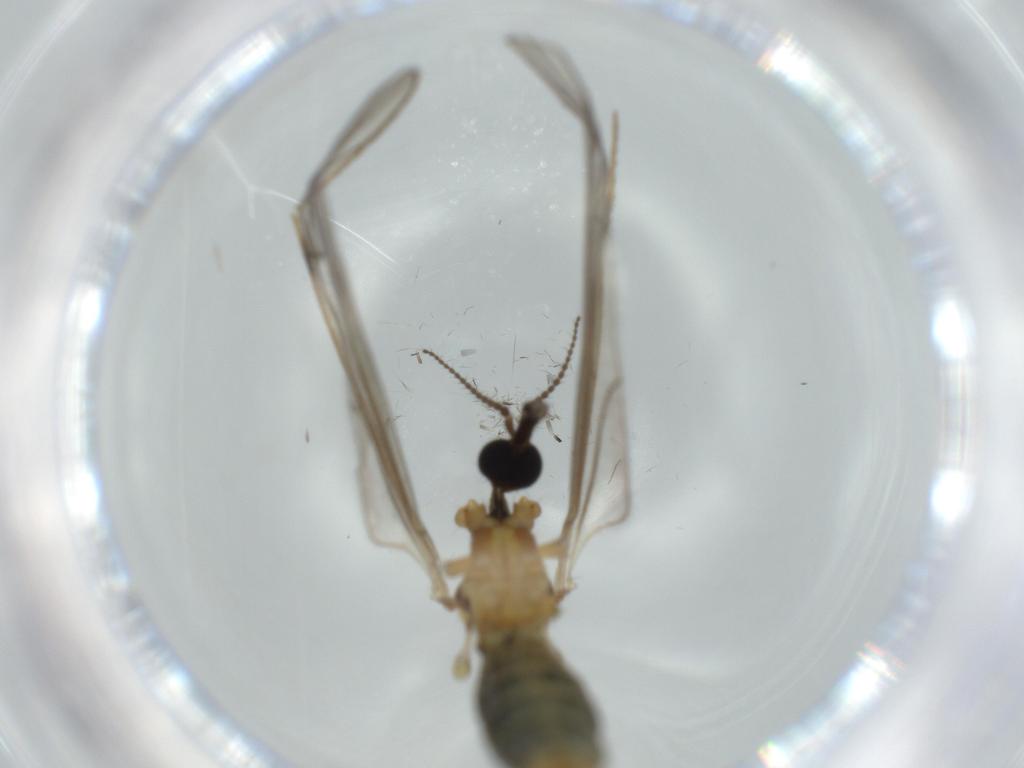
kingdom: Animalia
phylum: Arthropoda
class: Insecta
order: Diptera
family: Limoniidae
